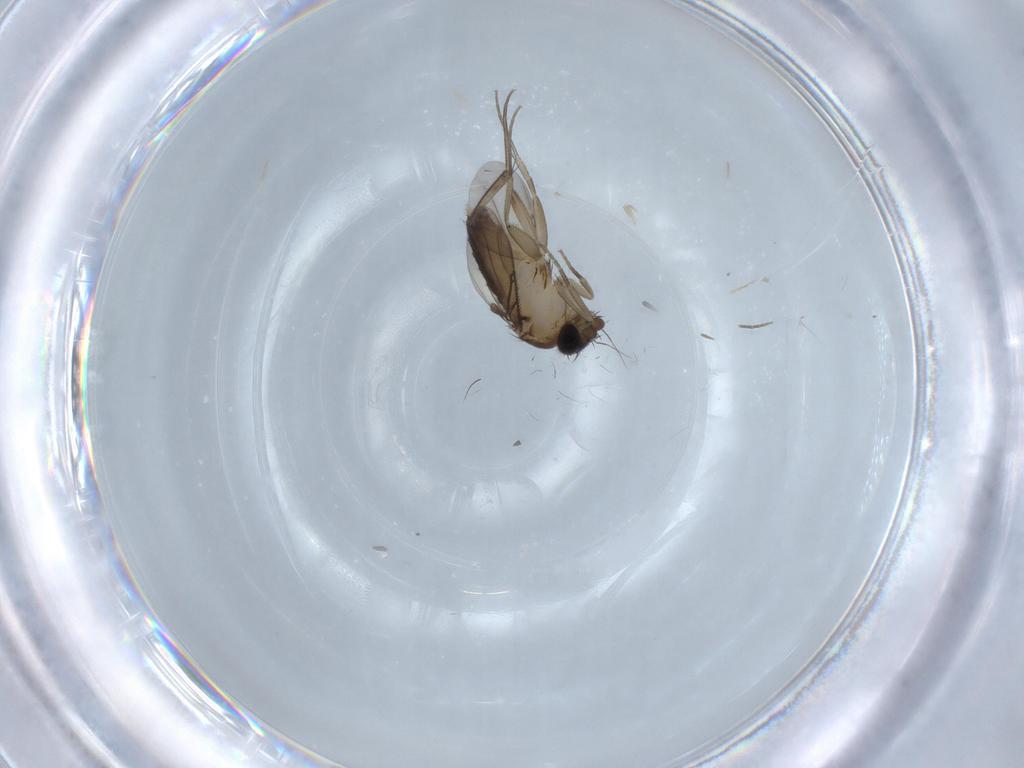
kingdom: Animalia
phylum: Arthropoda
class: Insecta
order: Diptera
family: Phoridae
